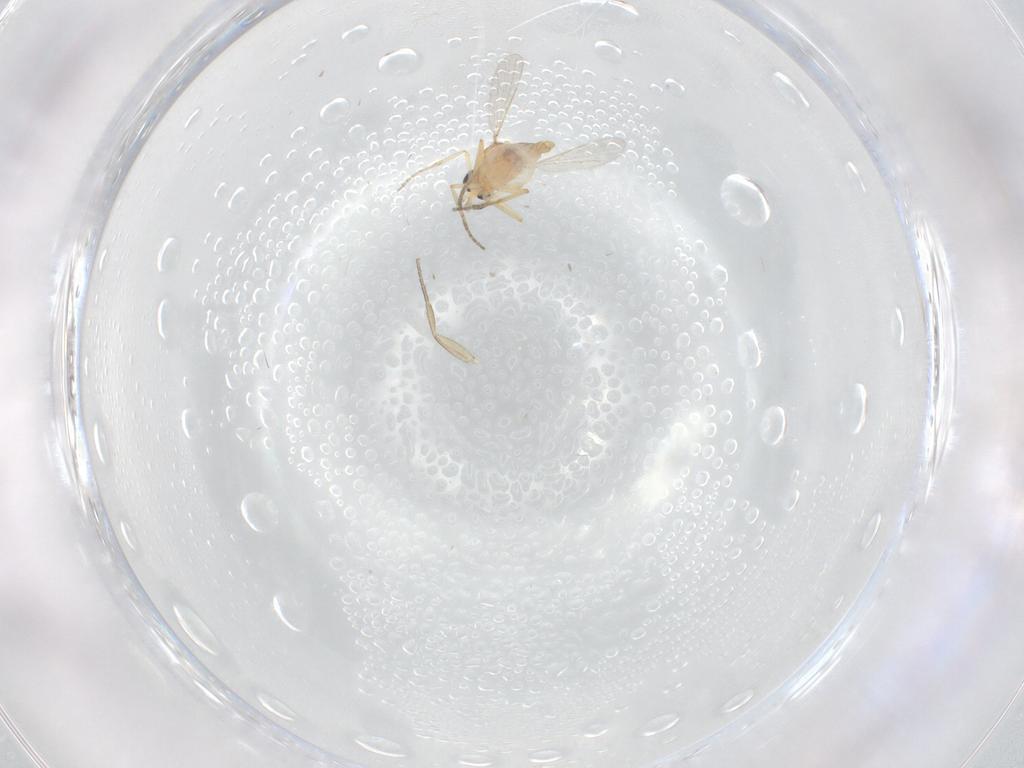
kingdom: Animalia
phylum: Arthropoda
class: Insecta
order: Diptera
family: Ceratopogonidae
